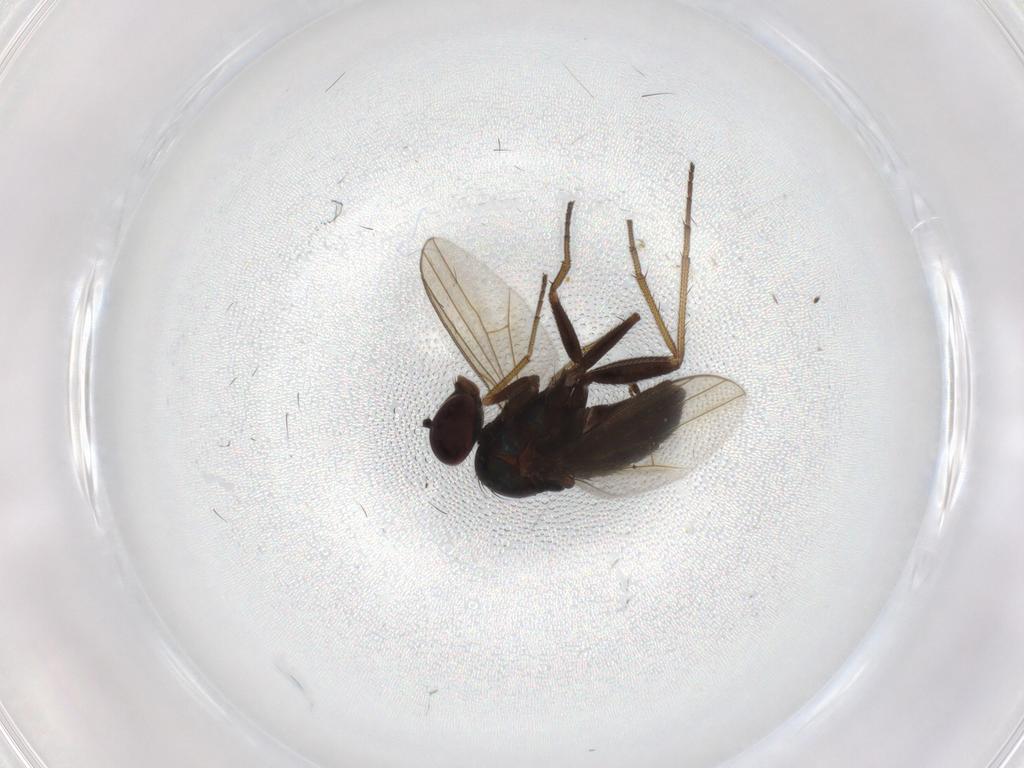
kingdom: Animalia
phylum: Arthropoda
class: Insecta
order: Diptera
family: Dolichopodidae
